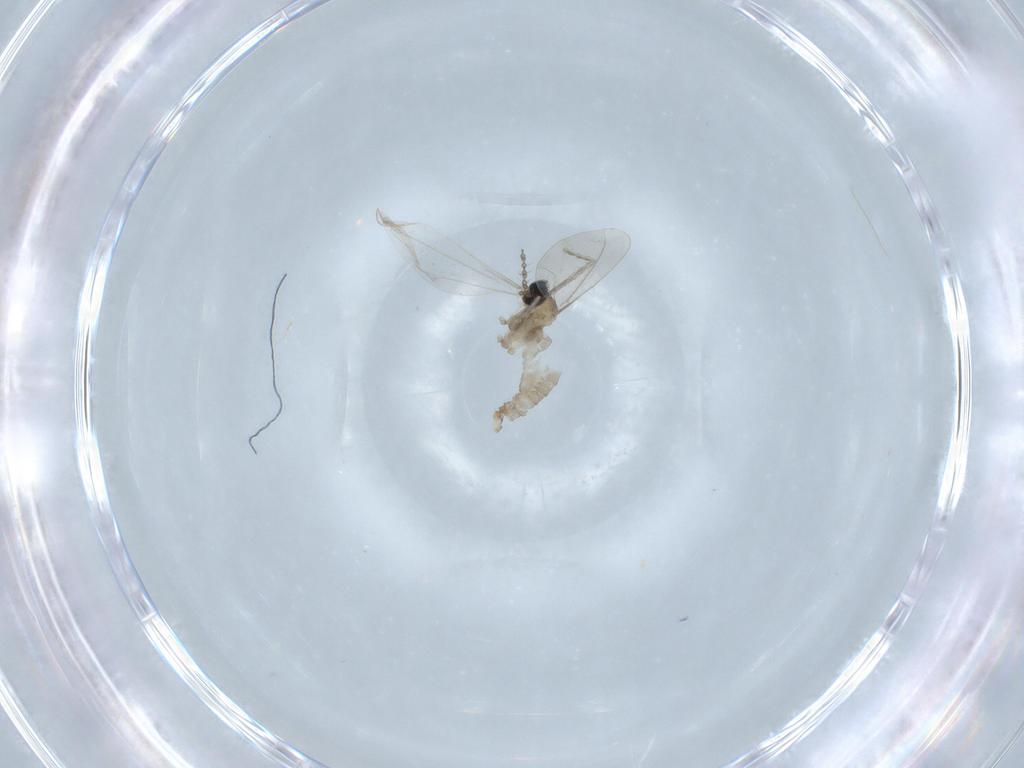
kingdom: Animalia
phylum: Arthropoda
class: Insecta
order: Diptera
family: Cecidomyiidae
